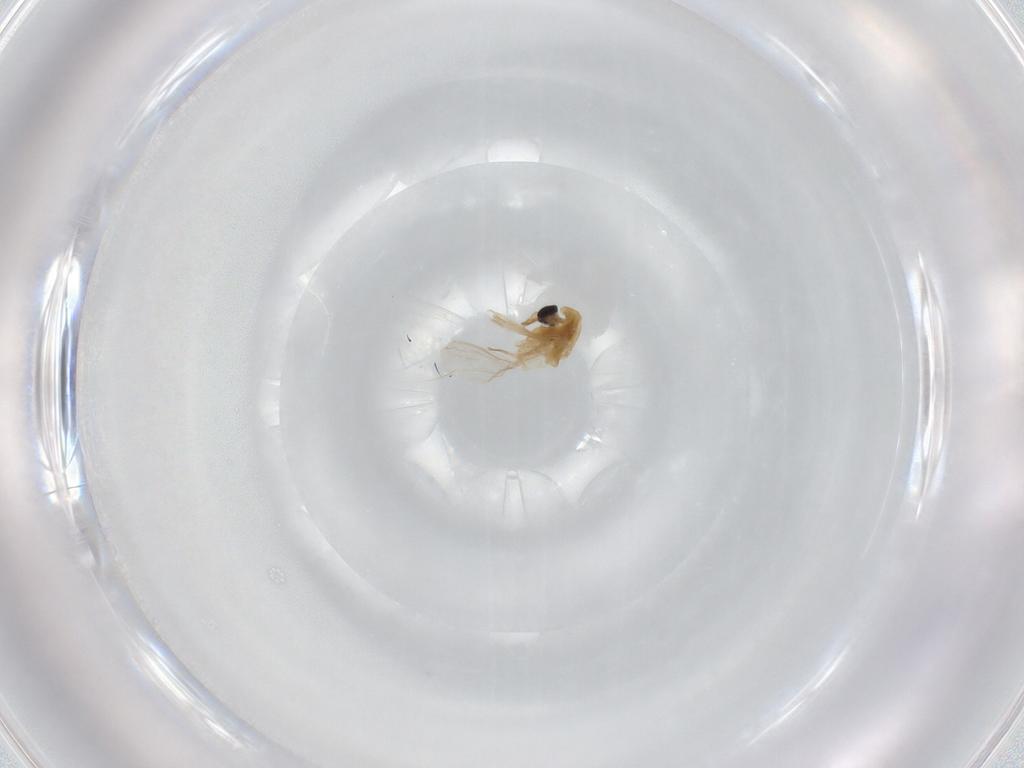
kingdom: Animalia
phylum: Arthropoda
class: Insecta
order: Diptera
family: Chironomidae
